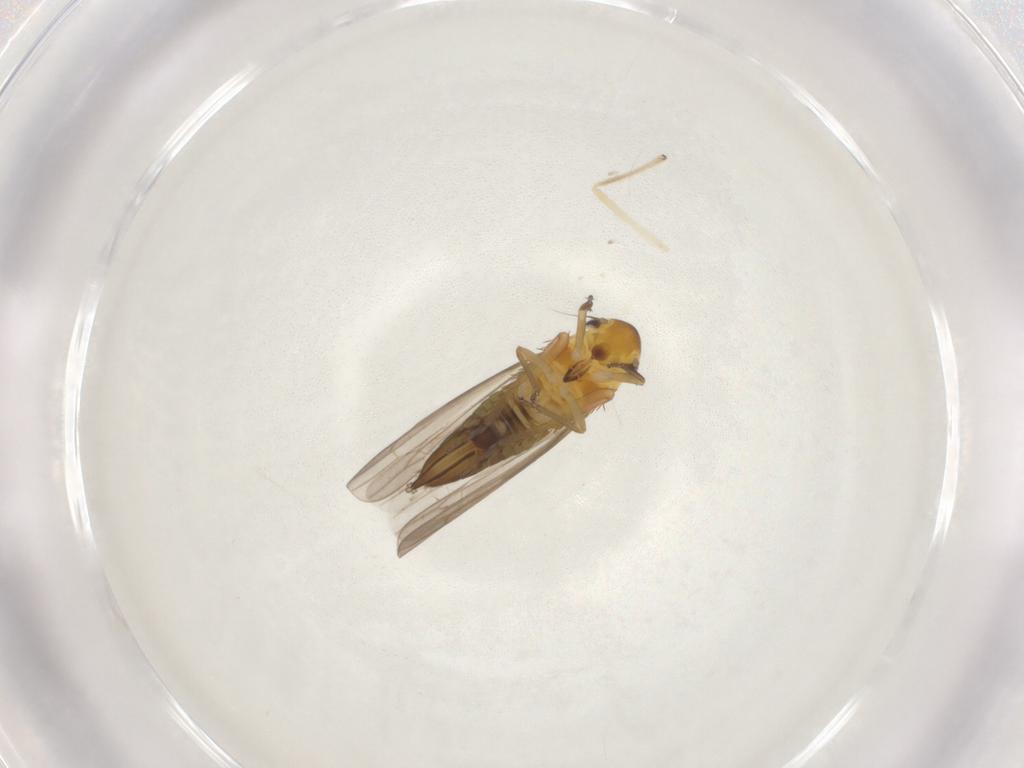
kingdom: Animalia
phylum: Arthropoda
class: Insecta
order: Hemiptera
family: Cicadellidae
